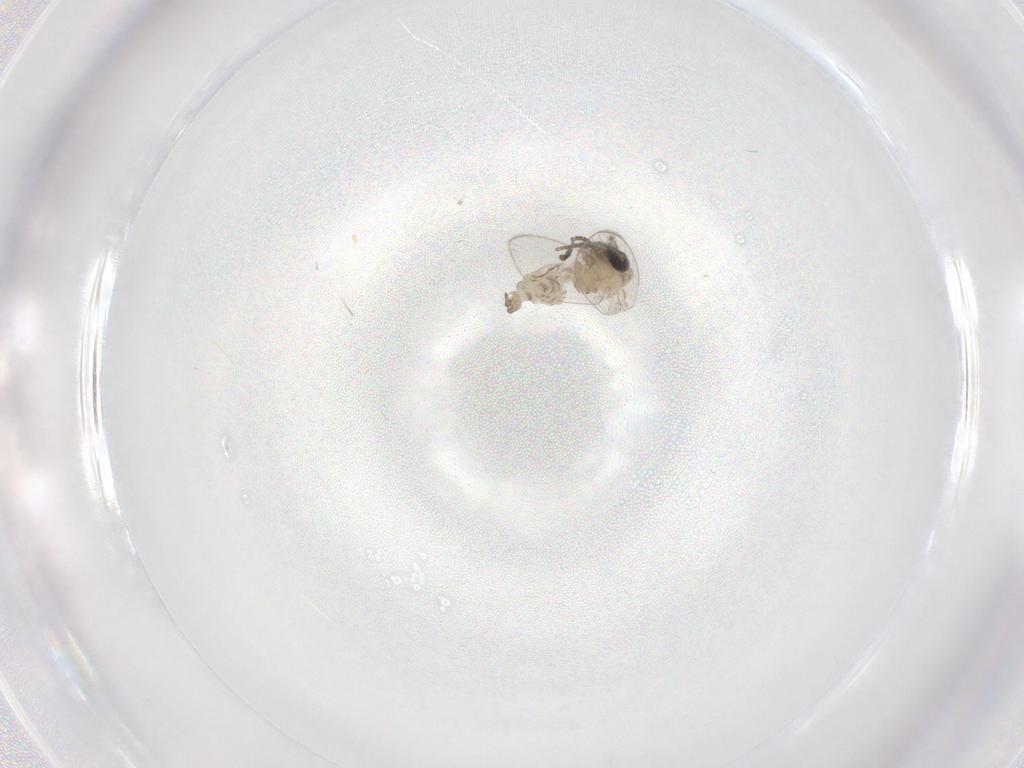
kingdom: Animalia
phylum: Arthropoda
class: Insecta
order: Diptera
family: Psychodidae
